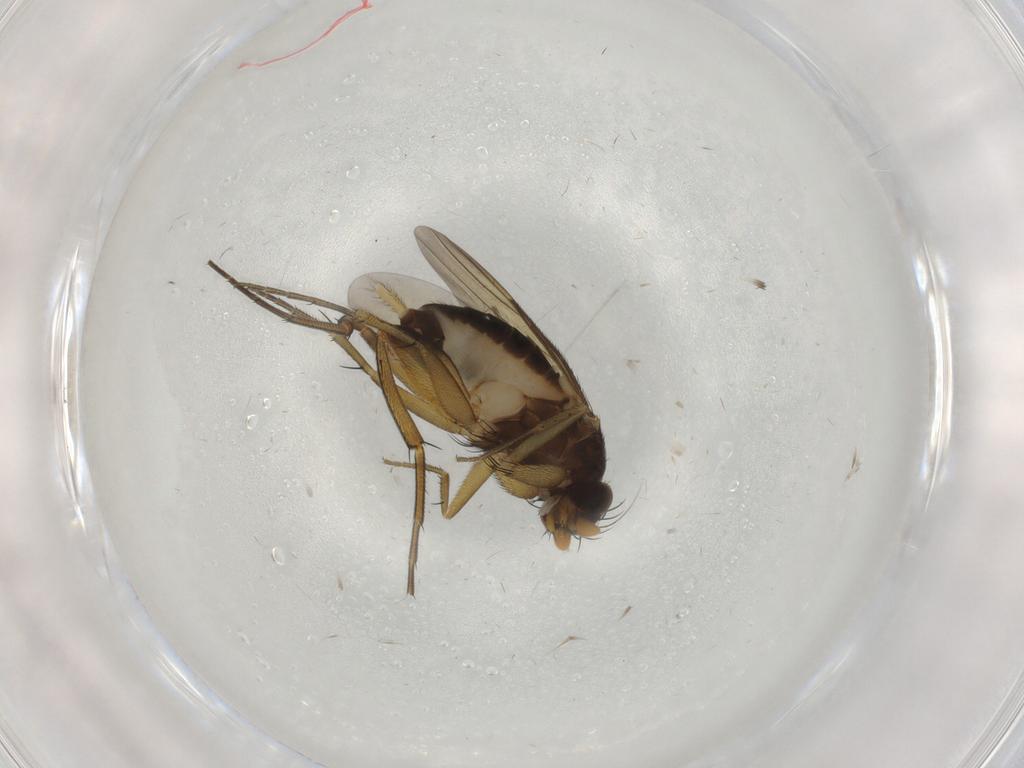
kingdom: Animalia
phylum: Arthropoda
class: Insecta
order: Diptera
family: Phoridae
